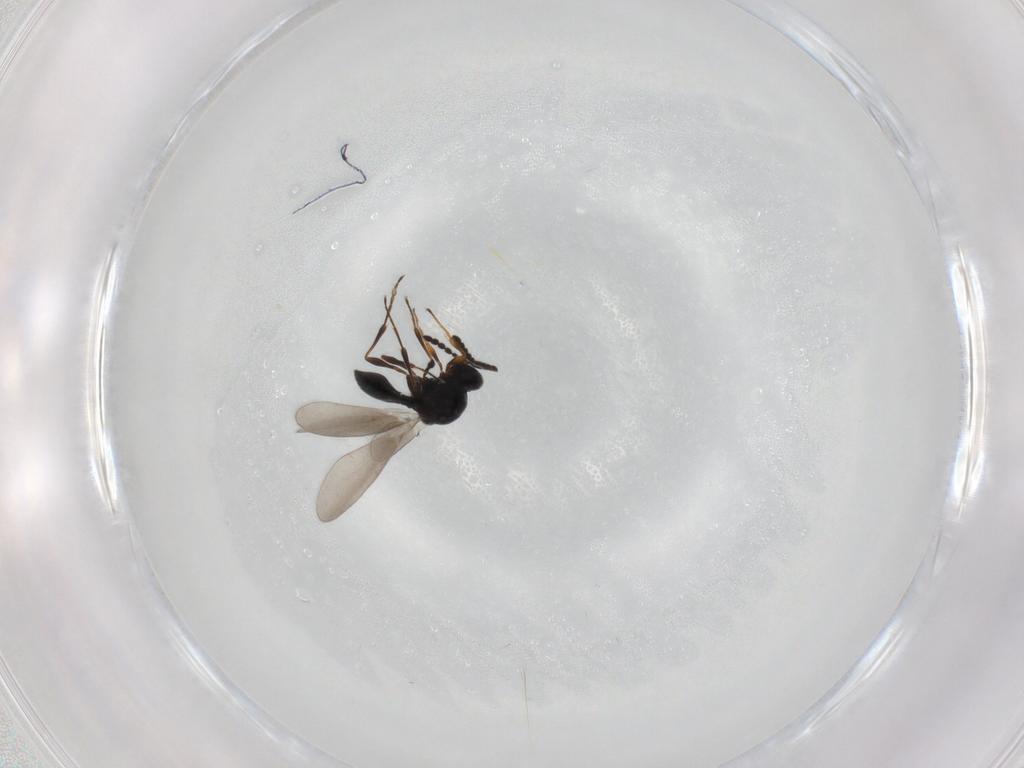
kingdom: Animalia
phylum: Arthropoda
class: Insecta
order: Hymenoptera
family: Platygastridae
